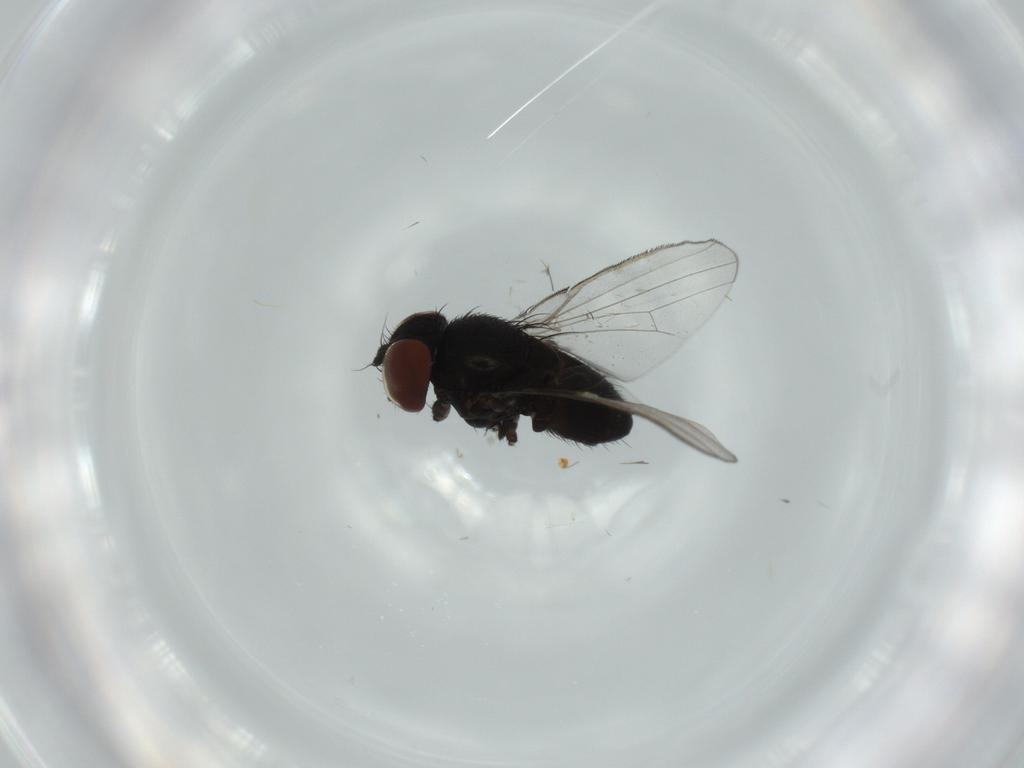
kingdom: Animalia
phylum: Arthropoda
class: Insecta
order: Diptera
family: Milichiidae
